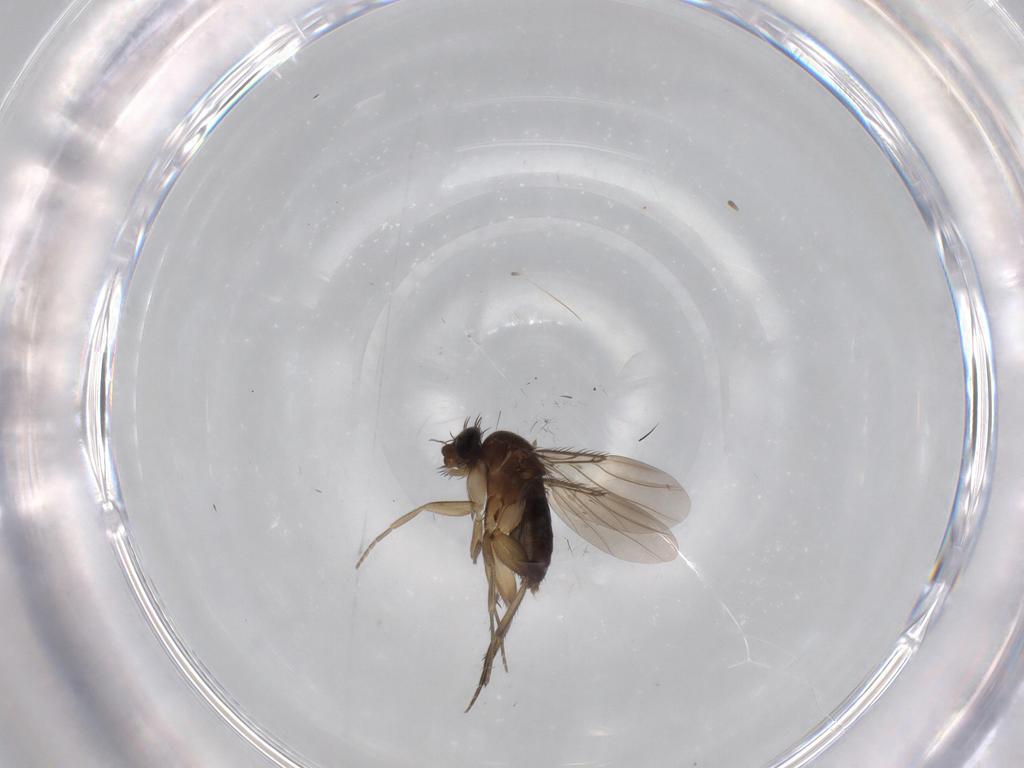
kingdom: Animalia
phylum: Arthropoda
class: Insecta
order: Diptera
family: Phoridae
